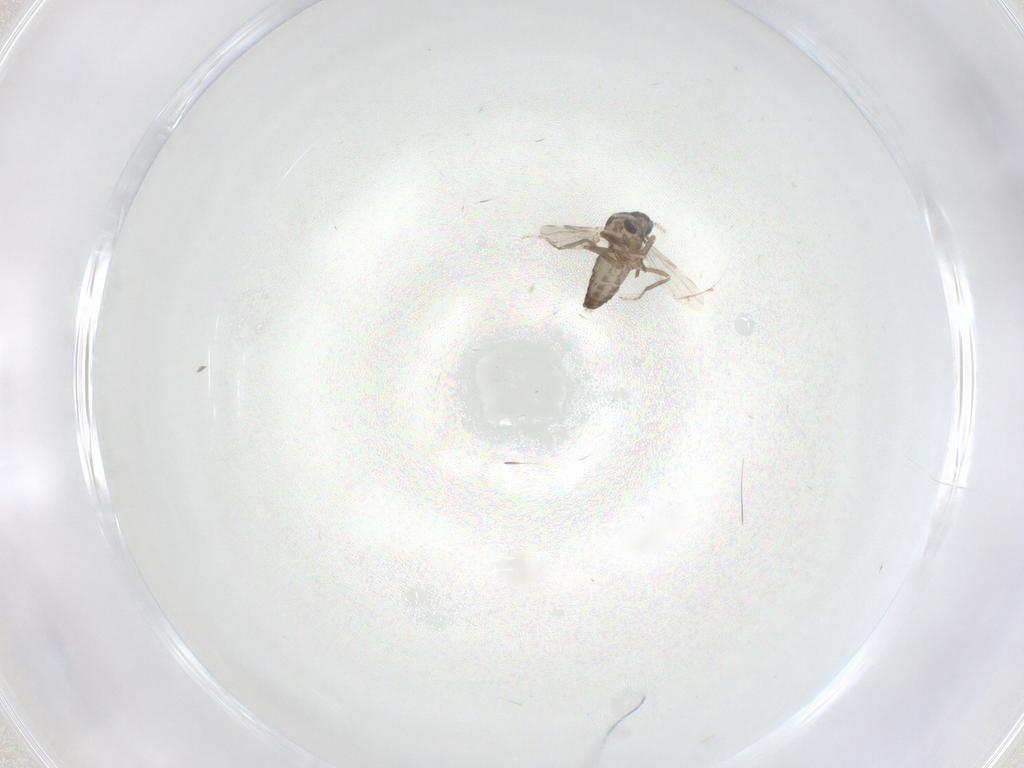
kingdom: Animalia
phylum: Arthropoda
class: Insecta
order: Diptera
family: Ceratopogonidae
